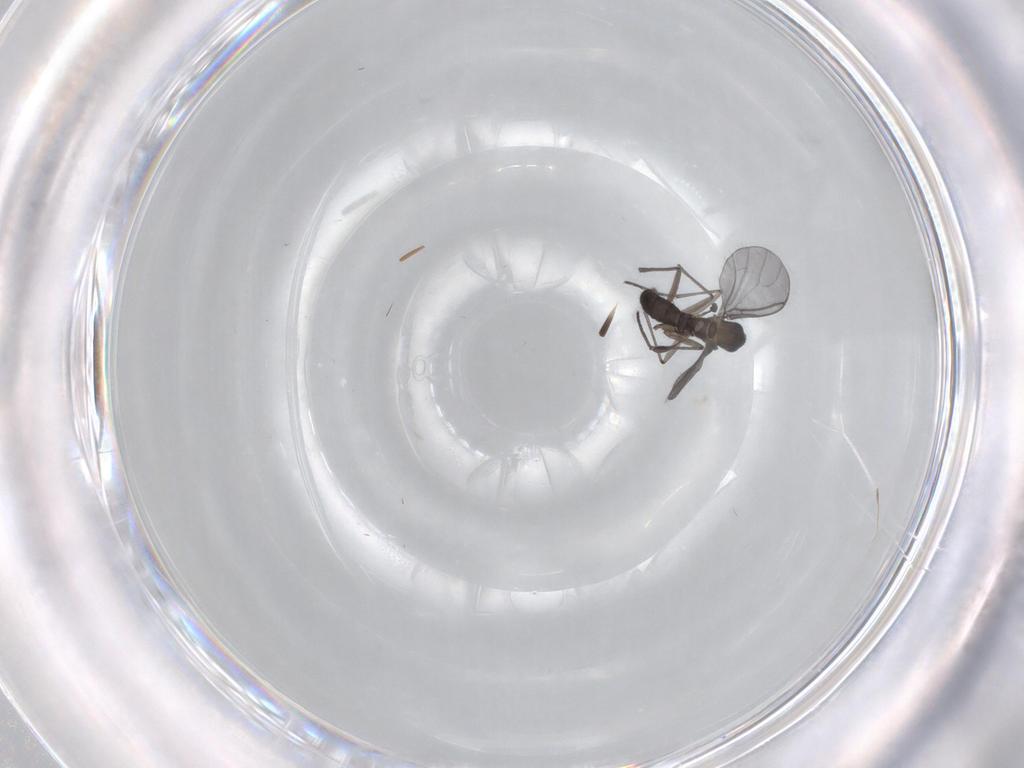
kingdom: Animalia
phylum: Arthropoda
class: Insecta
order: Diptera
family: Sciaridae
